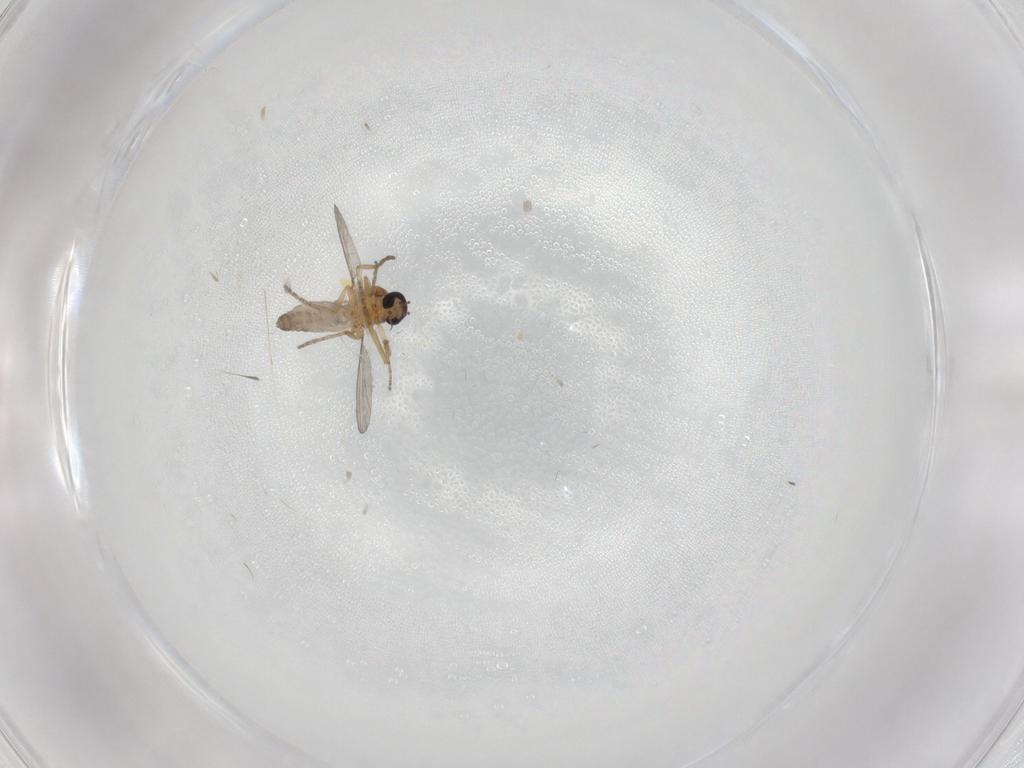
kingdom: Animalia
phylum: Arthropoda
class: Insecta
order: Diptera
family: Ceratopogonidae
